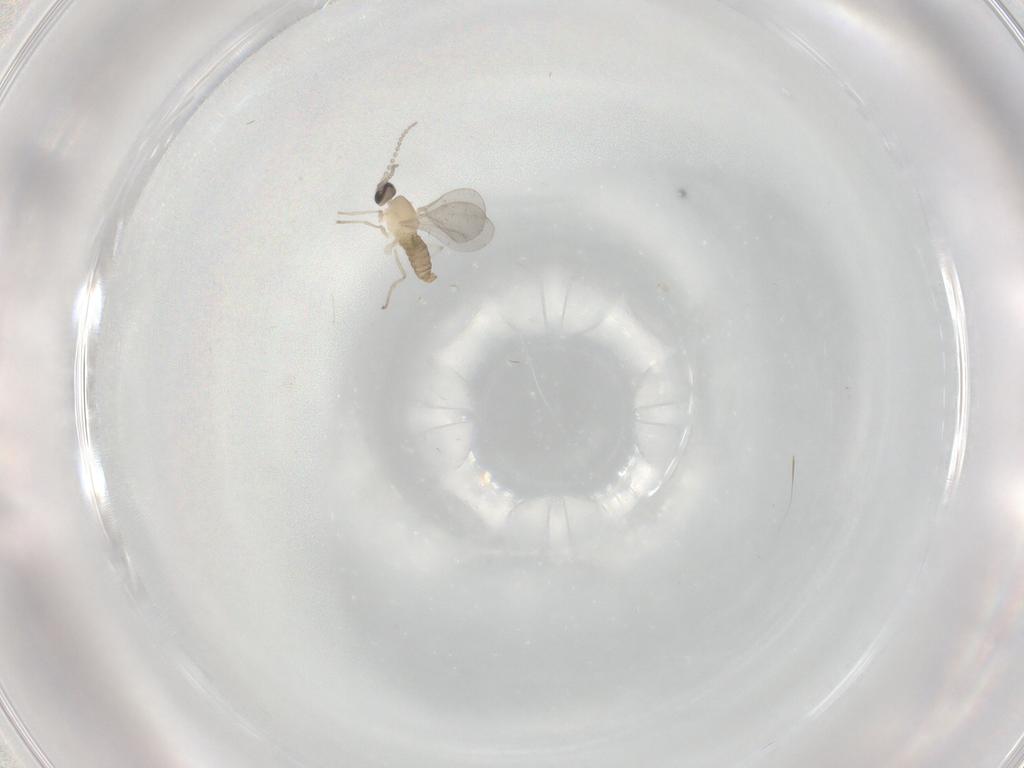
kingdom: Animalia
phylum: Arthropoda
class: Insecta
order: Diptera
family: Cecidomyiidae
